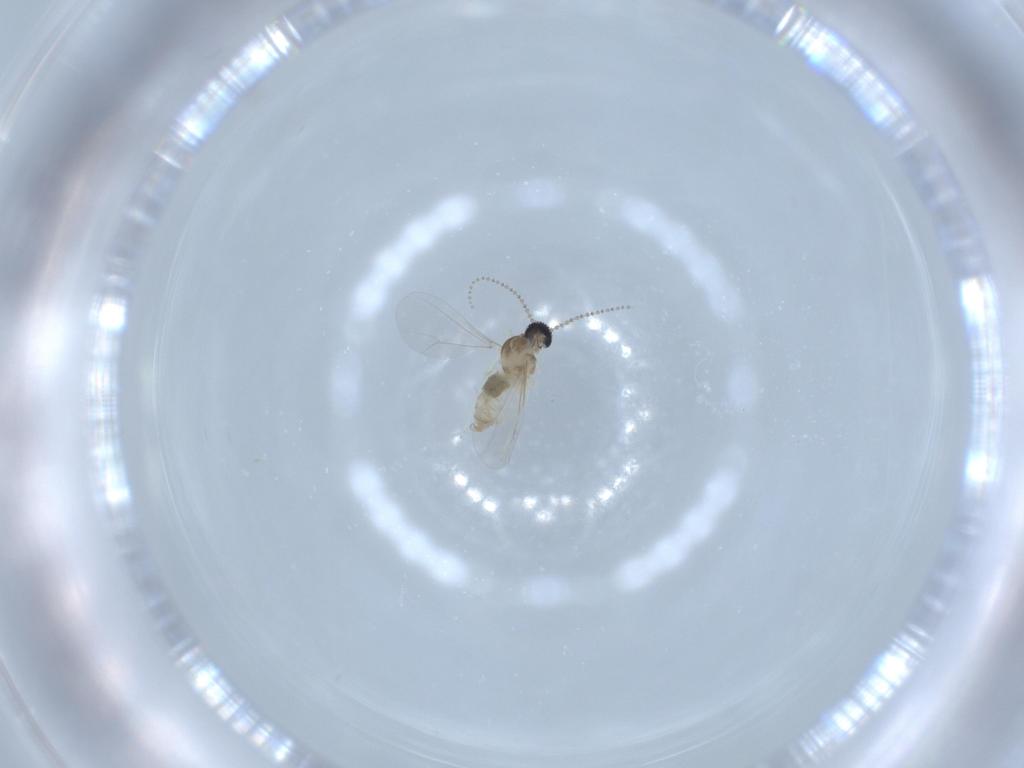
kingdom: Animalia
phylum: Arthropoda
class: Insecta
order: Diptera
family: Cecidomyiidae
